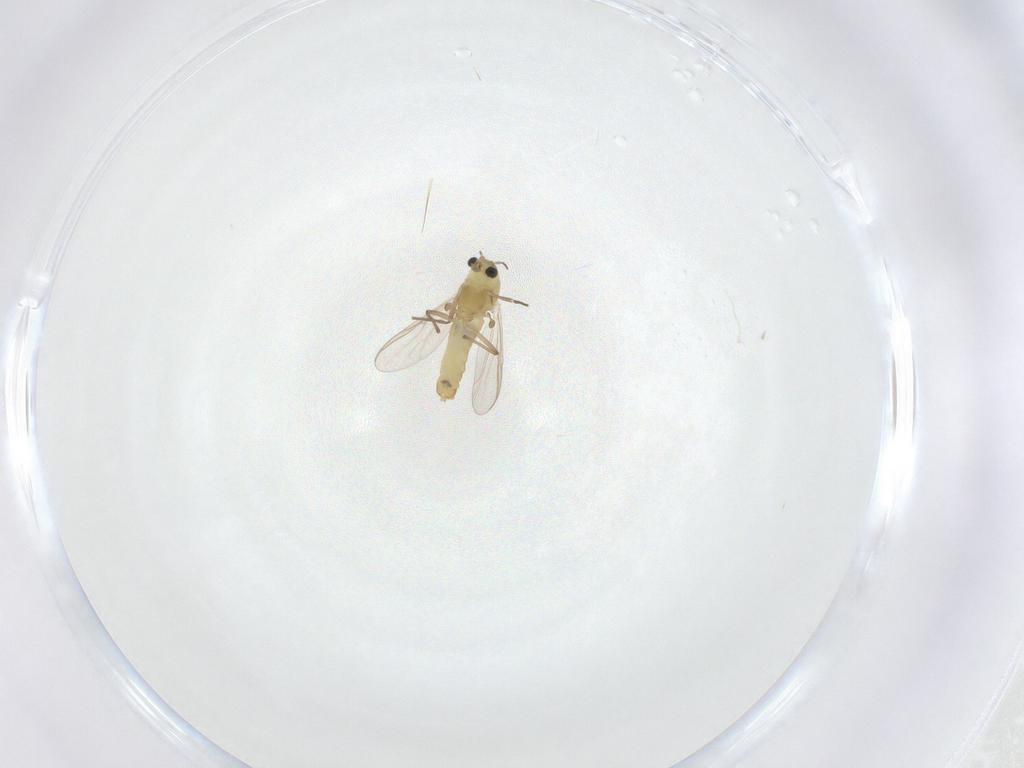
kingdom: Animalia
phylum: Arthropoda
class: Insecta
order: Diptera
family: Chironomidae
